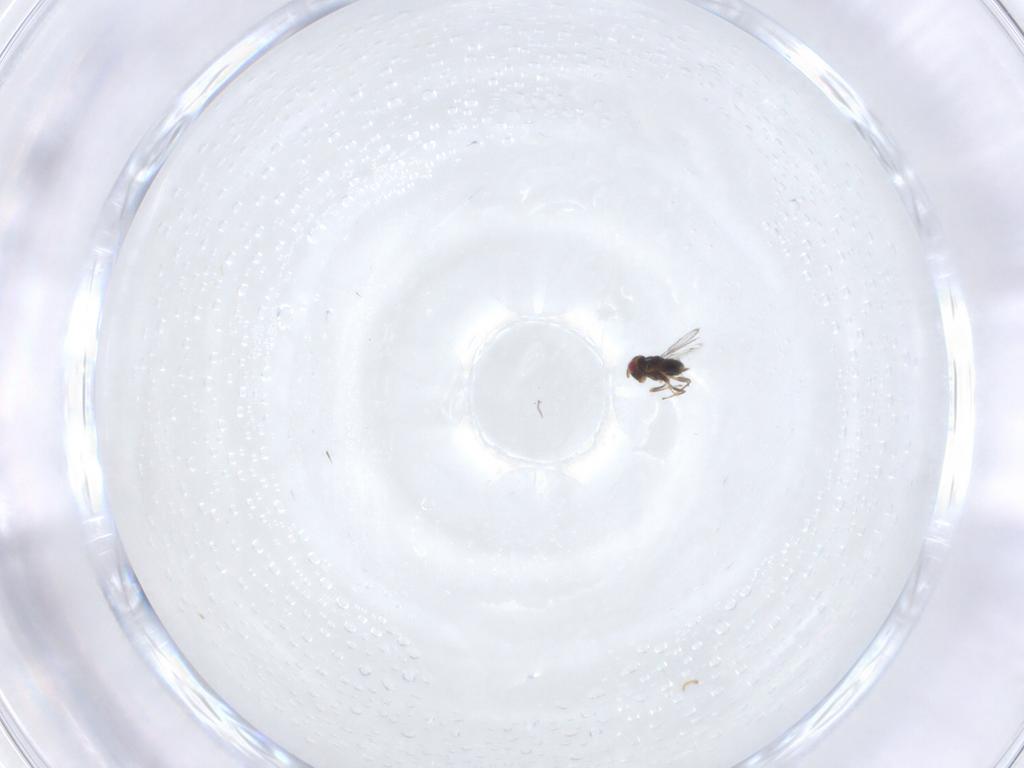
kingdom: Animalia
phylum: Arthropoda
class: Insecta
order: Hymenoptera
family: Azotidae
